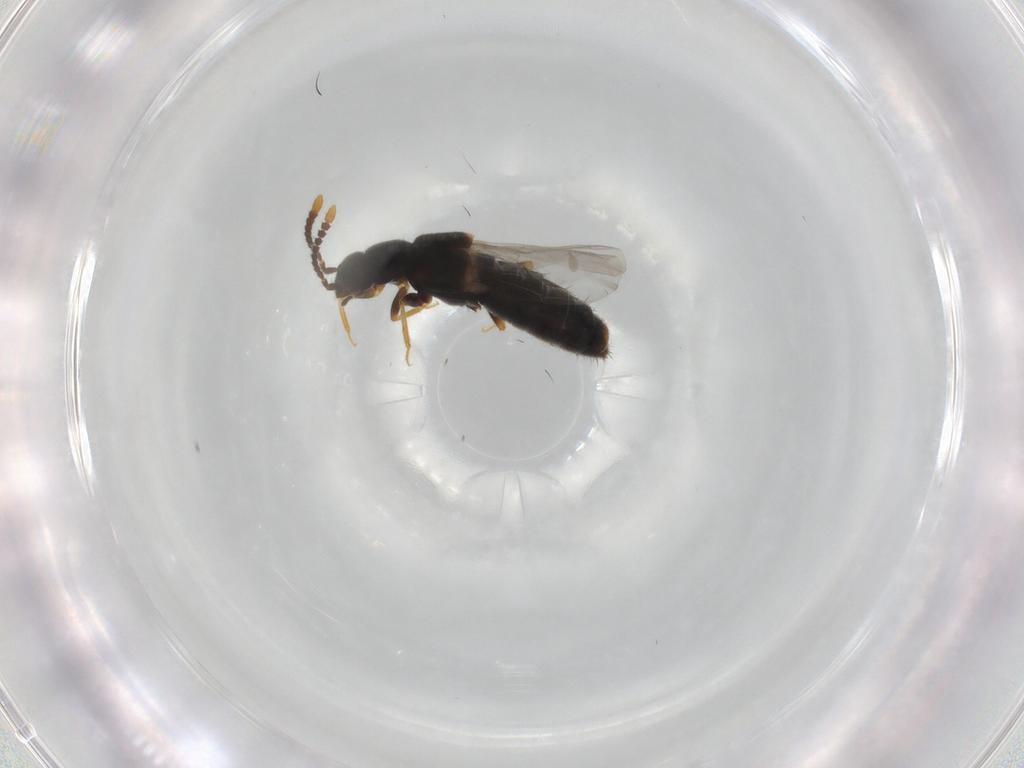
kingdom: Animalia
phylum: Arthropoda
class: Insecta
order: Coleoptera
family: Staphylinidae
